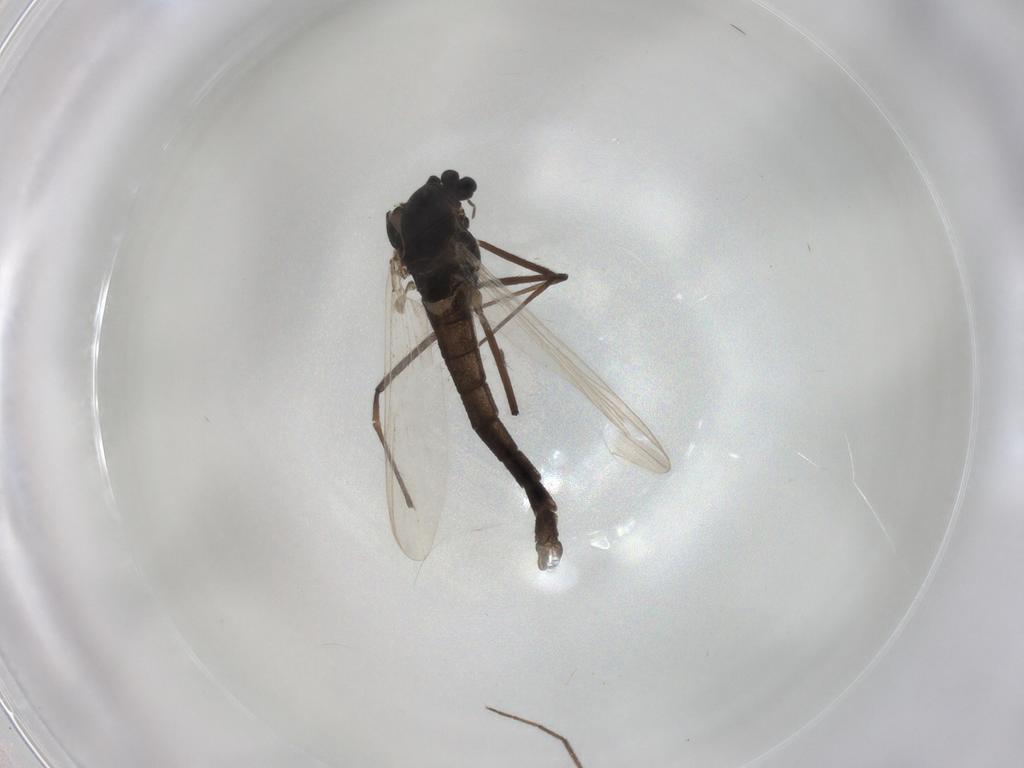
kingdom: Animalia
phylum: Arthropoda
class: Insecta
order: Diptera
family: Chironomidae
